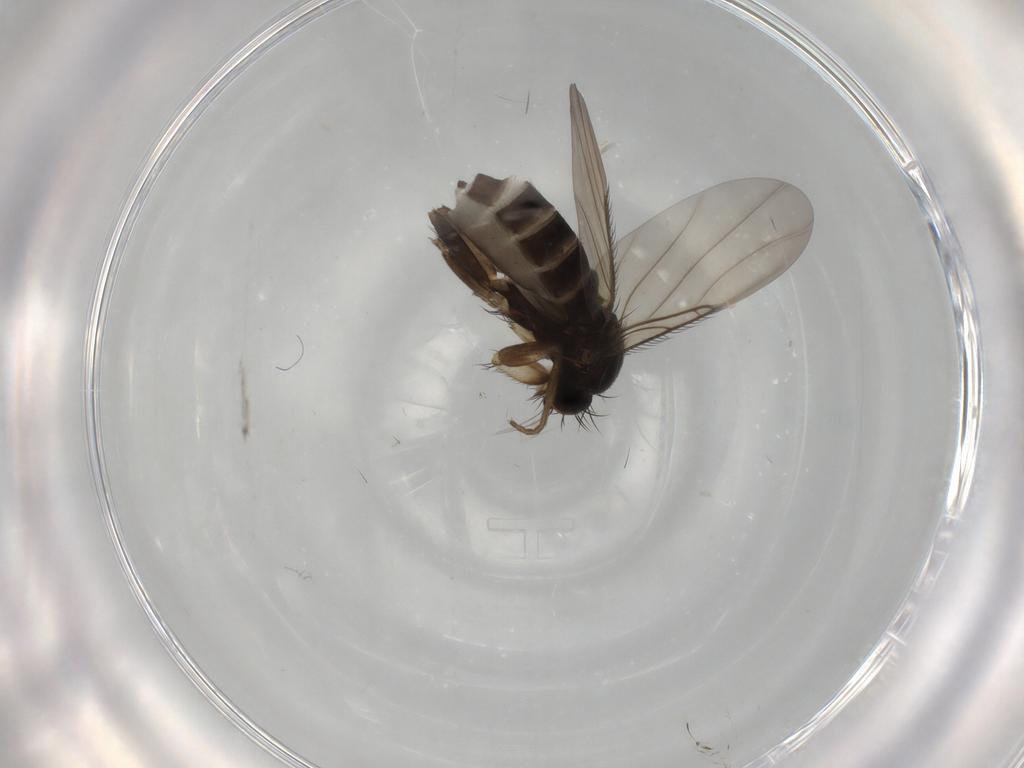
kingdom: Animalia
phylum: Arthropoda
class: Insecta
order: Diptera
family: Phoridae
